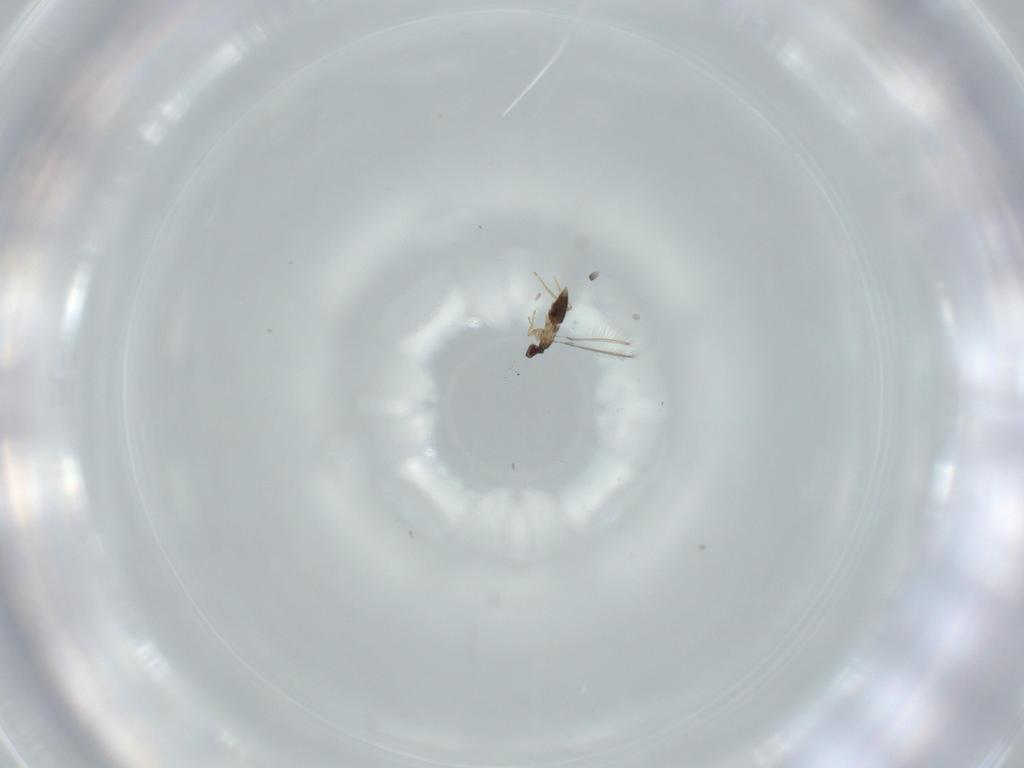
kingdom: Animalia
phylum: Arthropoda
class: Insecta
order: Hymenoptera
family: Mymaridae
